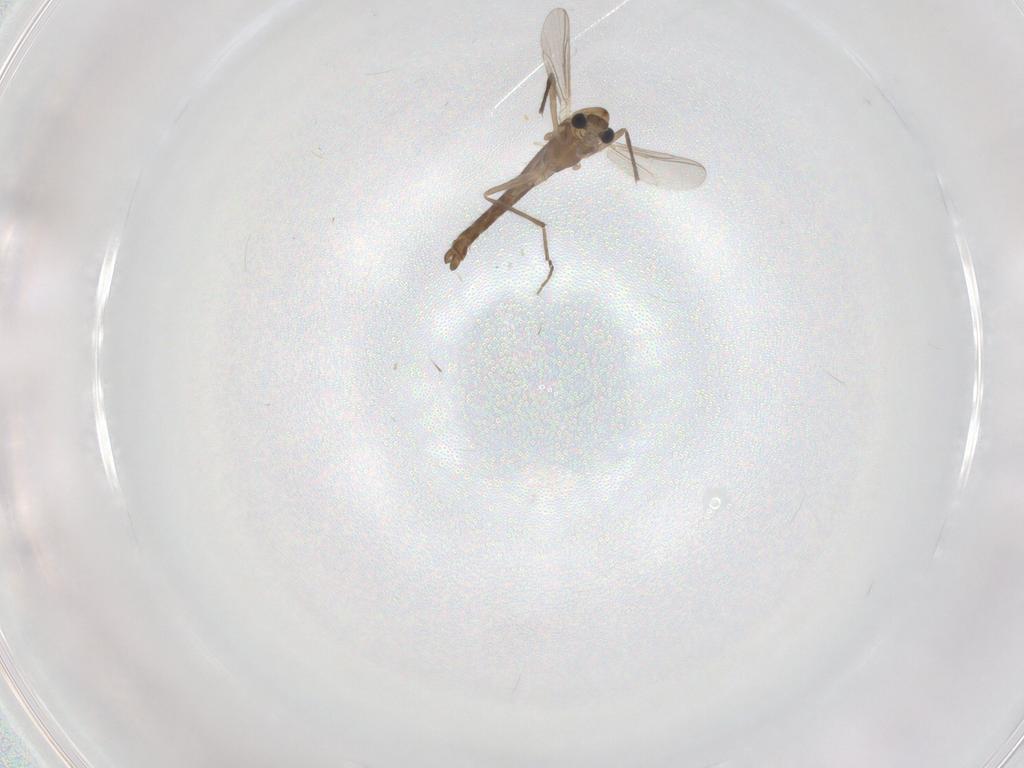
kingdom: Animalia
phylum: Arthropoda
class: Insecta
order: Diptera
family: Chironomidae
